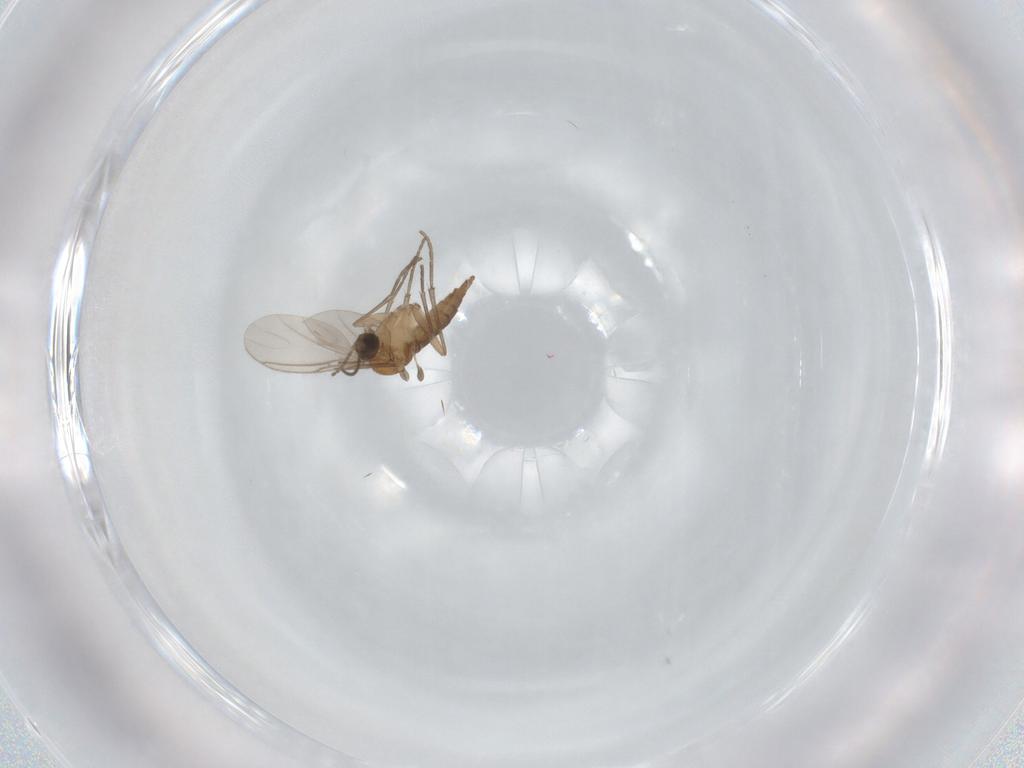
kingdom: Animalia
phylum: Arthropoda
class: Insecta
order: Diptera
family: Sciaridae
